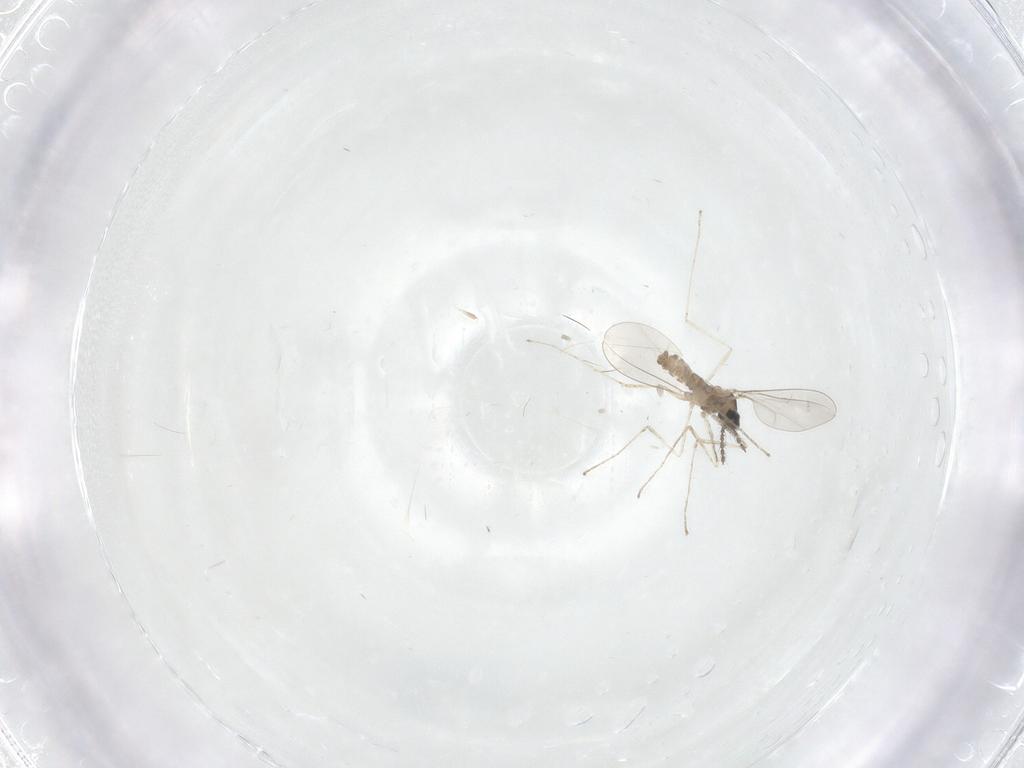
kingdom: Animalia
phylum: Arthropoda
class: Insecta
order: Diptera
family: Chironomidae
